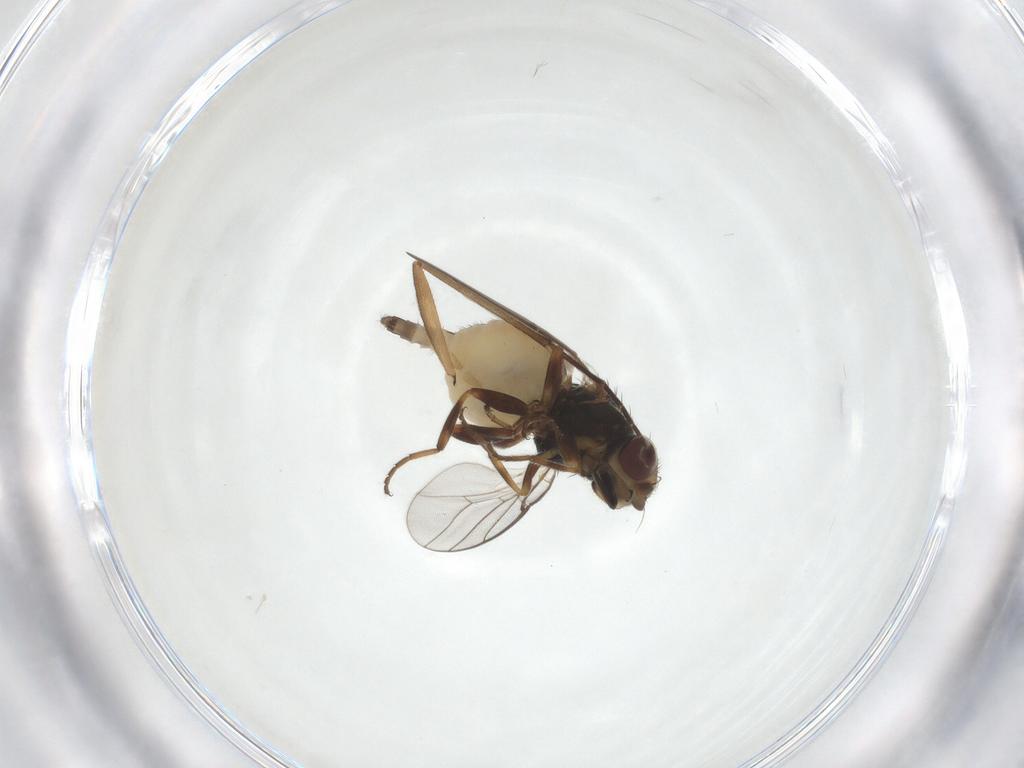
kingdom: Animalia
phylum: Arthropoda
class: Insecta
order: Diptera
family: Chloropidae
